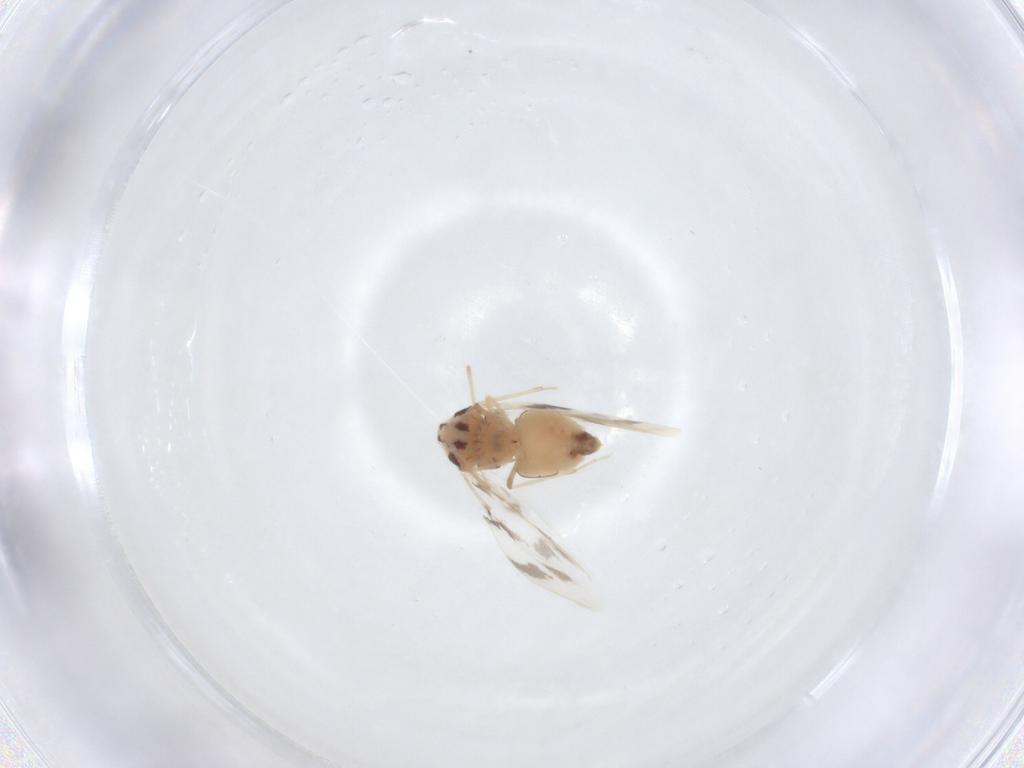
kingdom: Animalia
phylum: Arthropoda
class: Insecta
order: Hemiptera
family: Aleyrodidae
